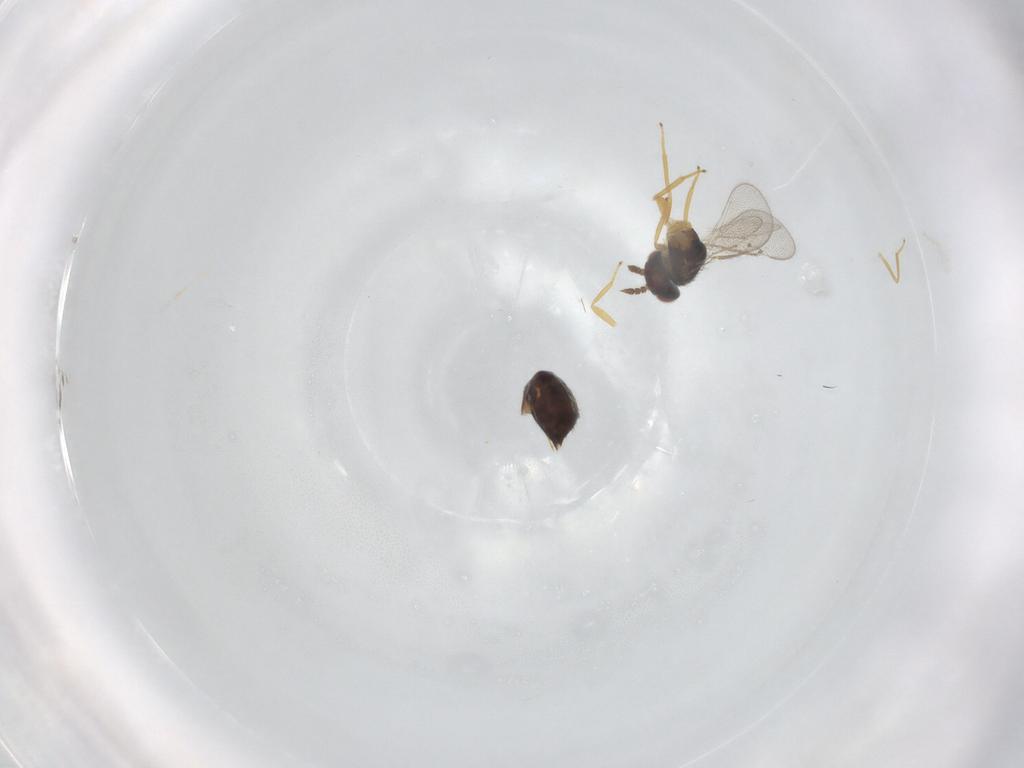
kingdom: Animalia
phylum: Arthropoda
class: Insecta
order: Hymenoptera
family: Eulophidae
